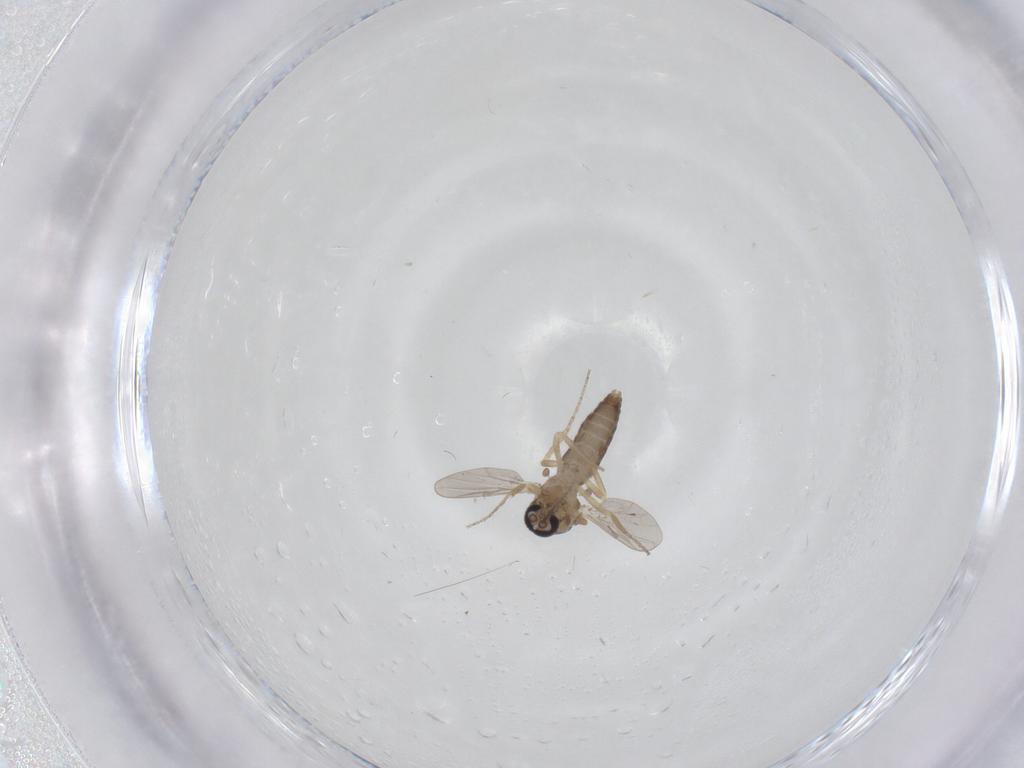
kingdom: Animalia
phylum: Arthropoda
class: Insecta
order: Diptera
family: Ceratopogonidae
